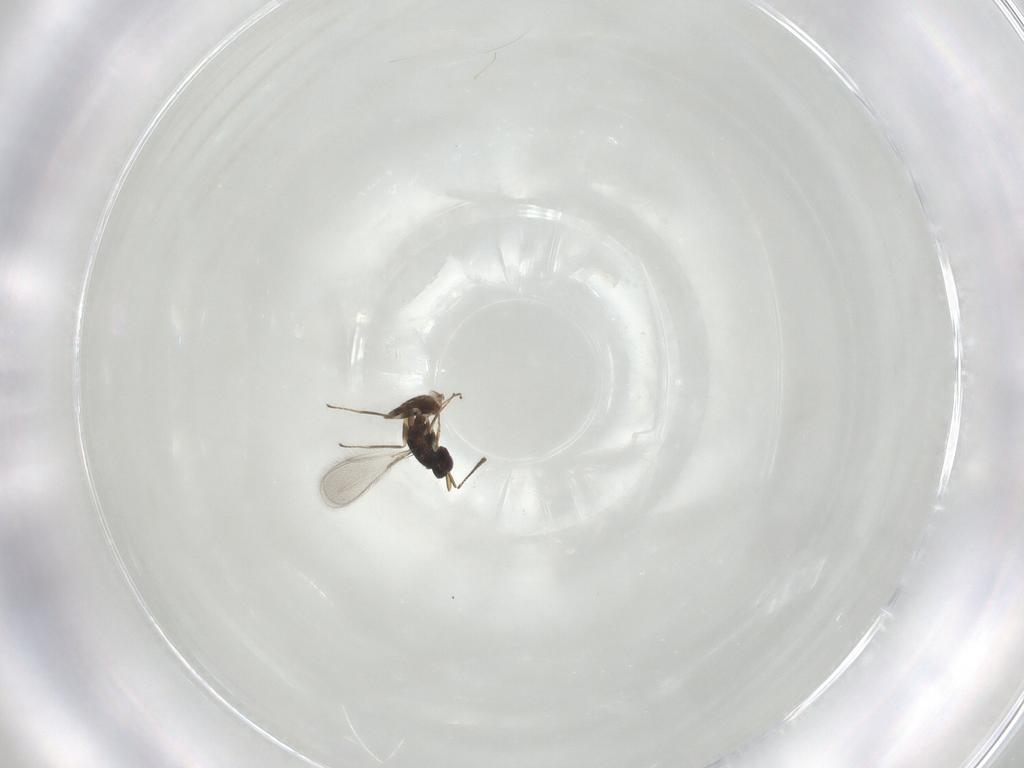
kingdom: Animalia
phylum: Arthropoda
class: Insecta
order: Hymenoptera
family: Mymaridae
